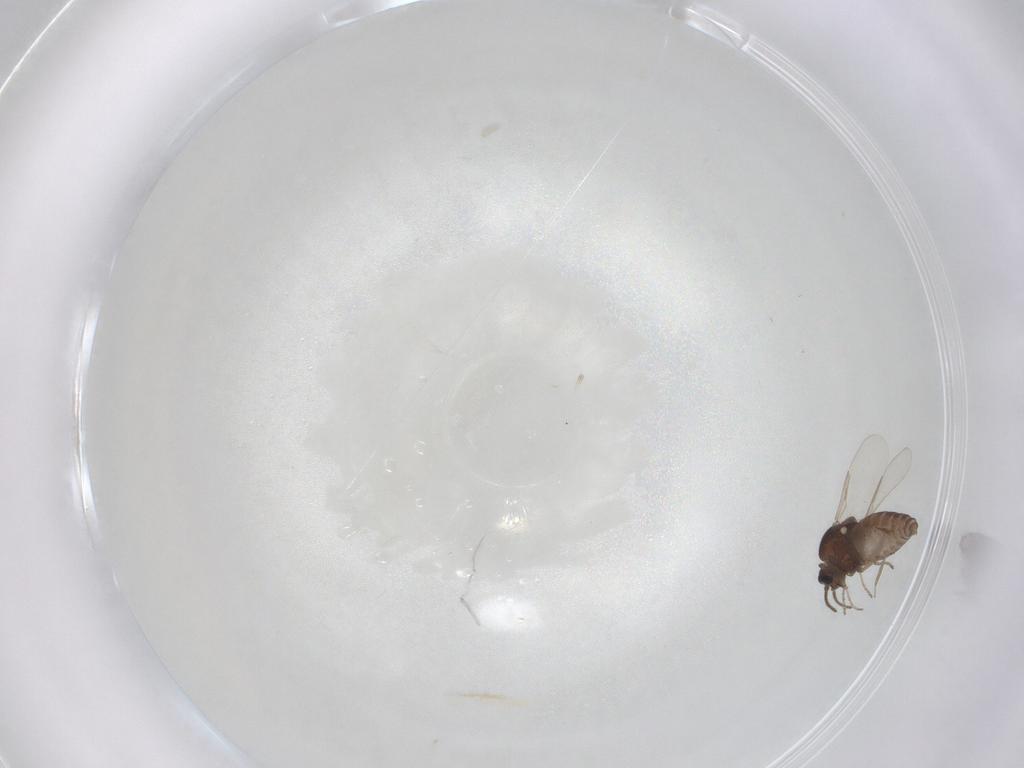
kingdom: Animalia
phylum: Arthropoda
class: Insecta
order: Diptera
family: Ceratopogonidae
